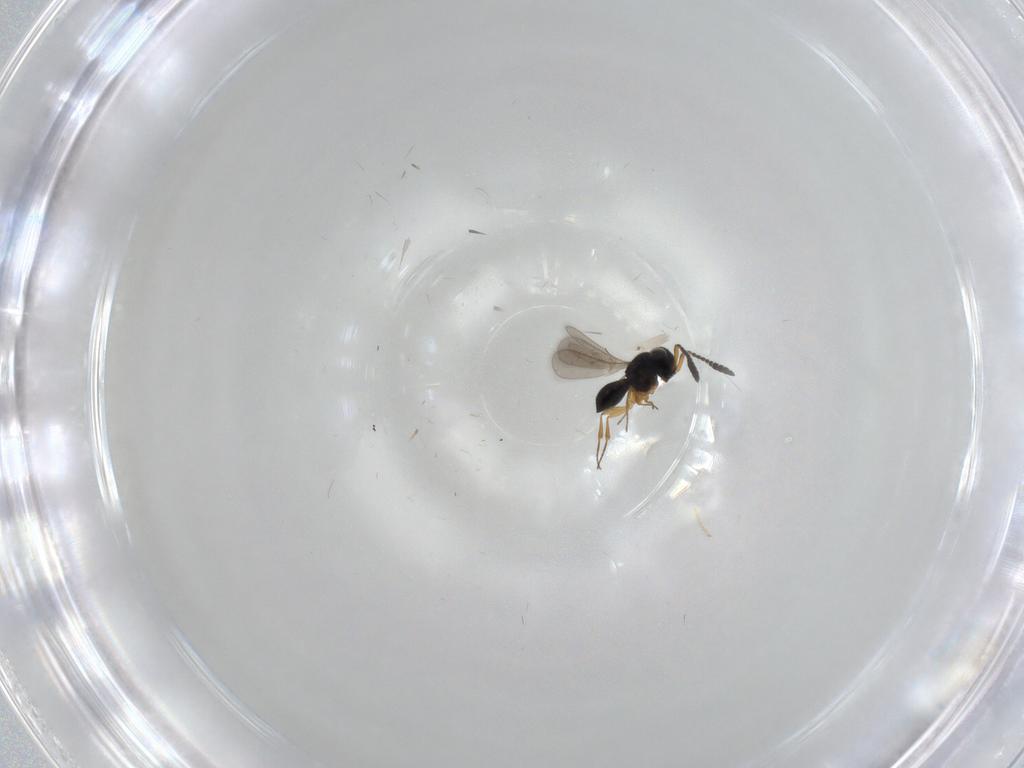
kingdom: Animalia
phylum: Arthropoda
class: Insecta
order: Hymenoptera
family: Scelionidae
